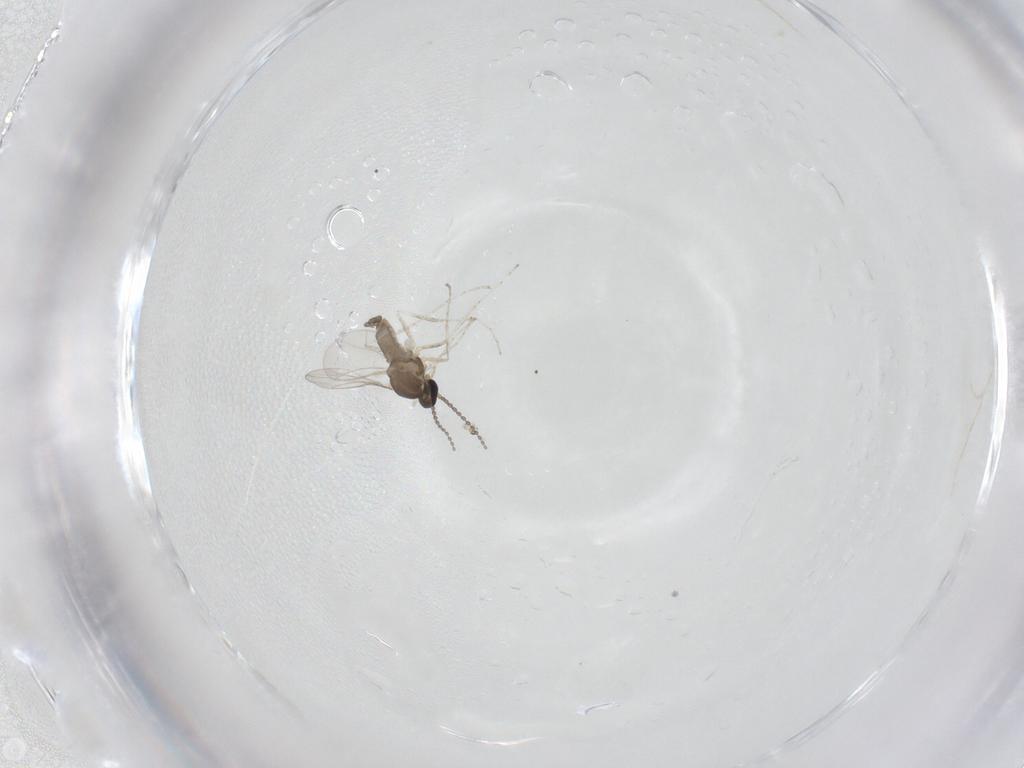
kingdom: Animalia
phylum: Arthropoda
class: Insecta
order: Diptera
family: Cecidomyiidae
